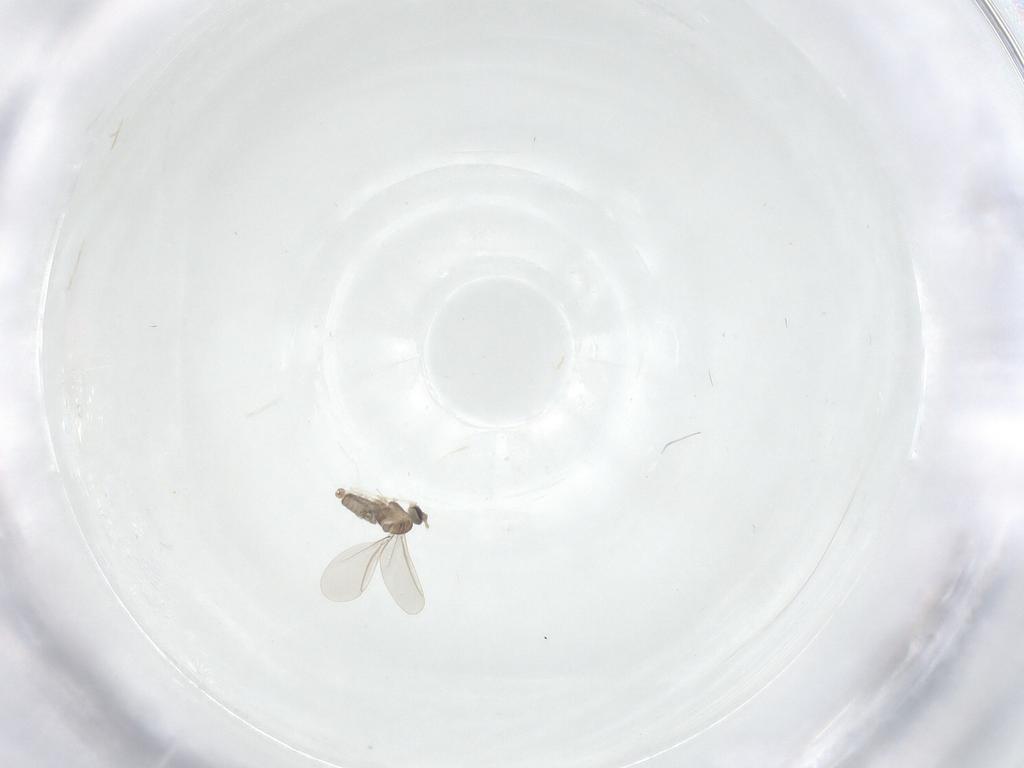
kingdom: Animalia
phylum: Arthropoda
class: Insecta
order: Diptera
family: Cecidomyiidae
